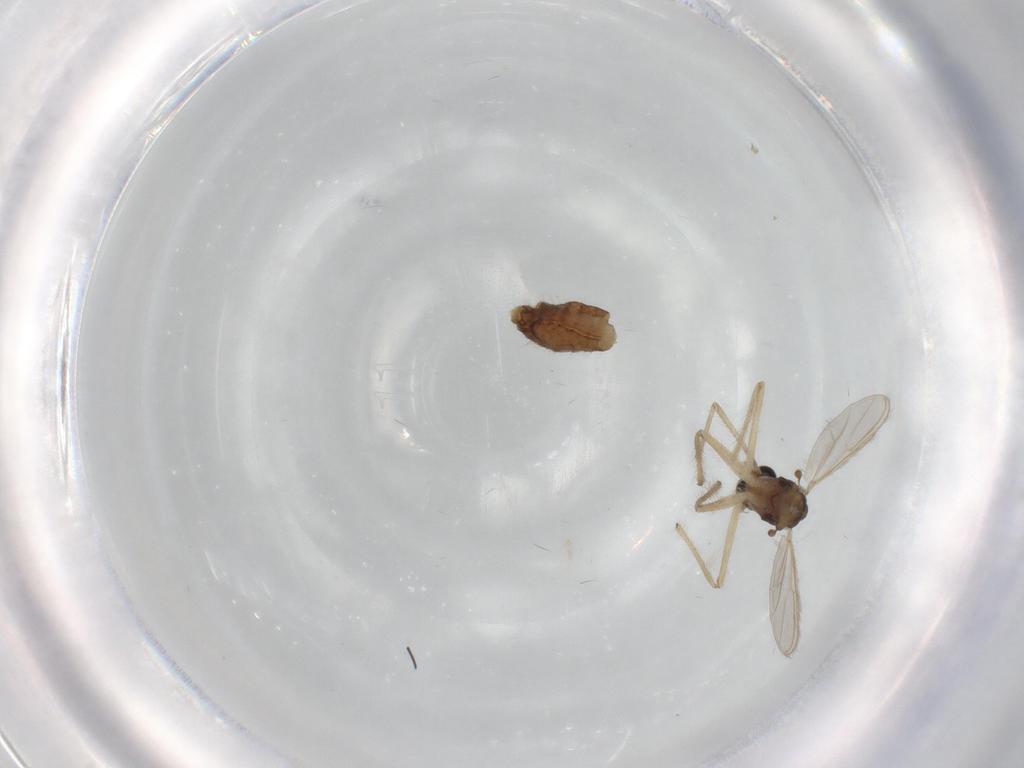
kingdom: Animalia
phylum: Arthropoda
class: Insecta
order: Diptera
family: Chironomidae
